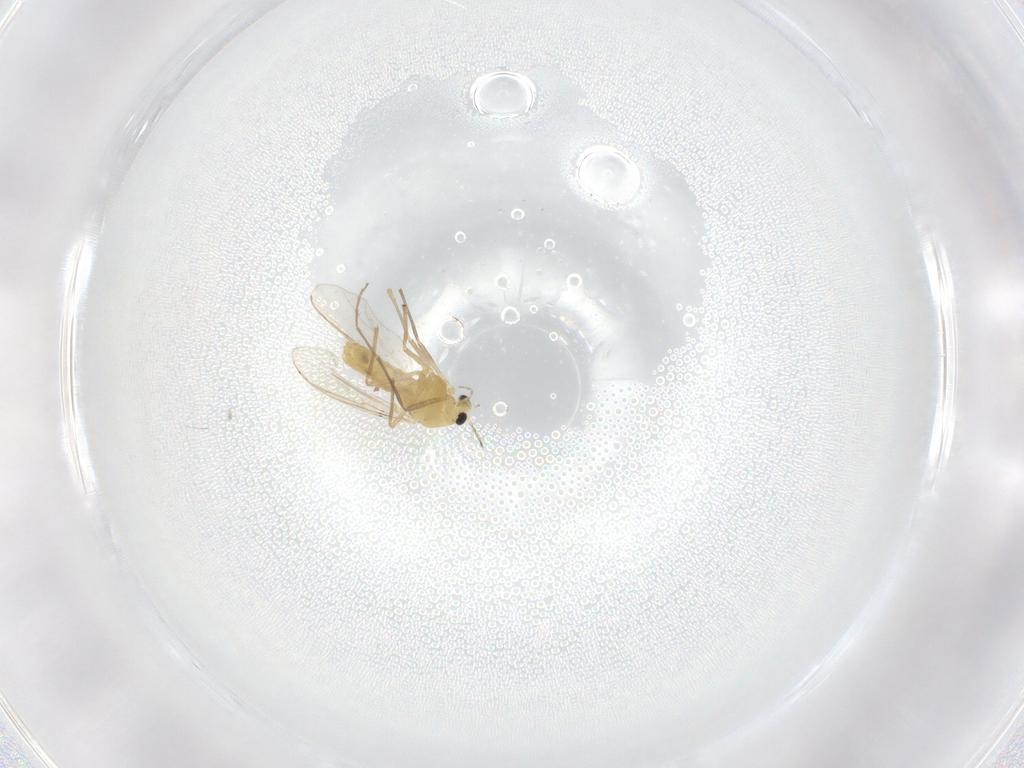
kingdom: Animalia
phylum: Arthropoda
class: Insecta
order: Diptera
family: Chironomidae
